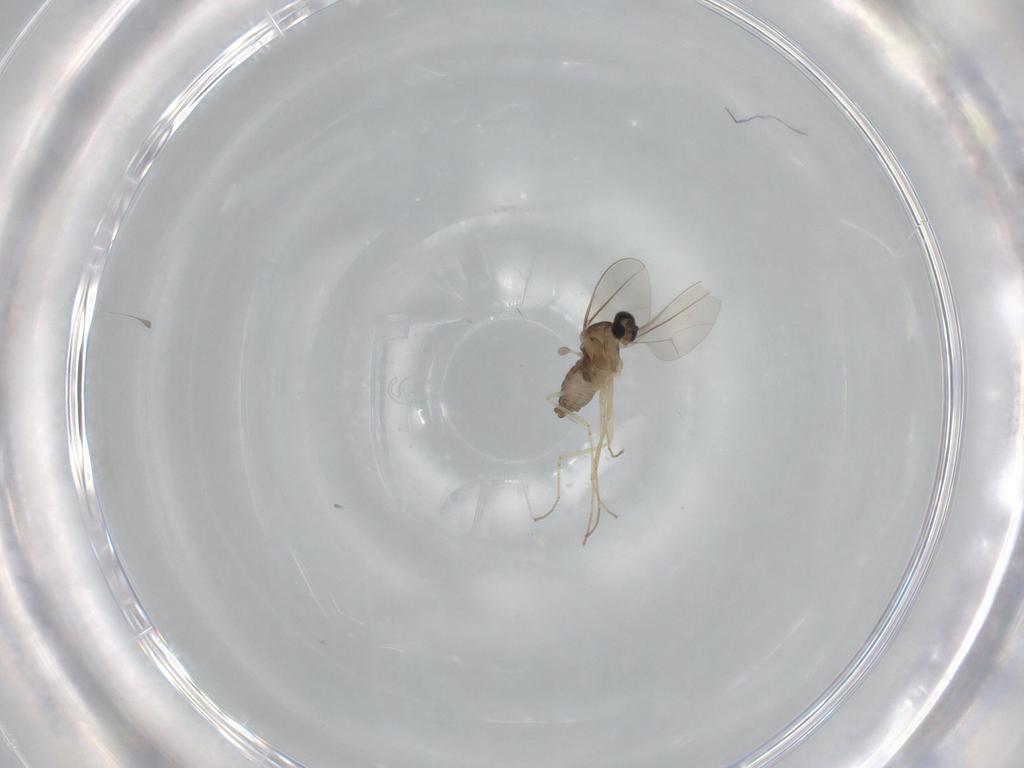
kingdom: Animalia
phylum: Arthropoda
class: Insecta
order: Diptera
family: Cecidomyiidae
